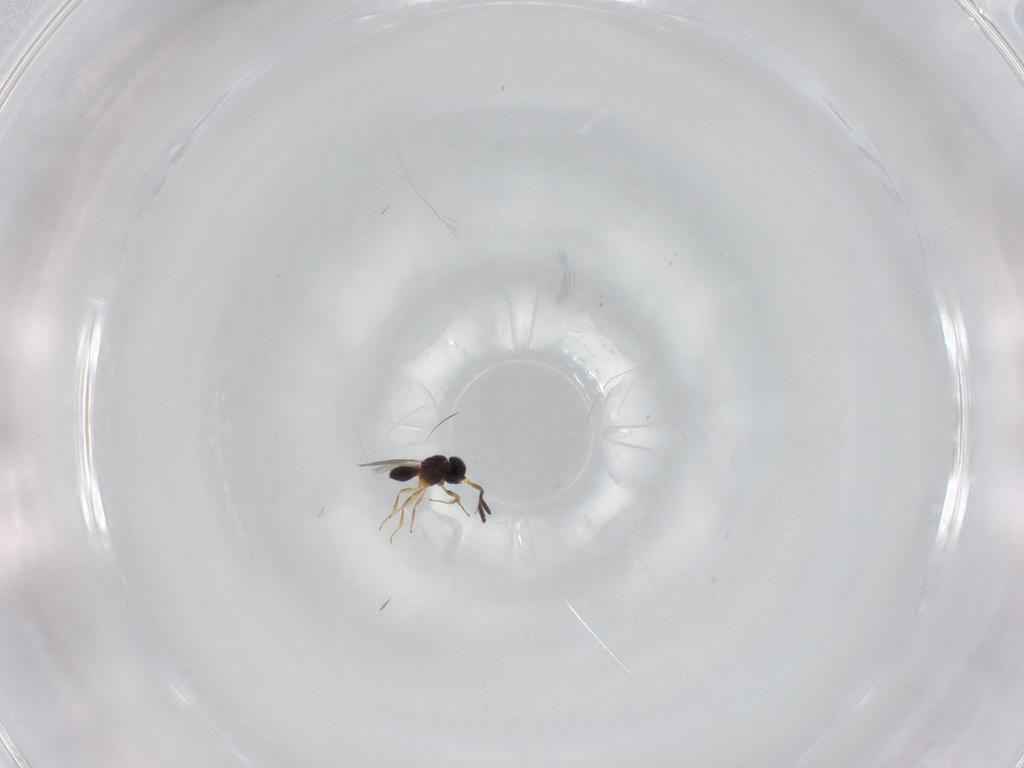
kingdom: Animalia
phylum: Arthropoda
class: Insecta
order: Hymenoptera
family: Scelionidae
